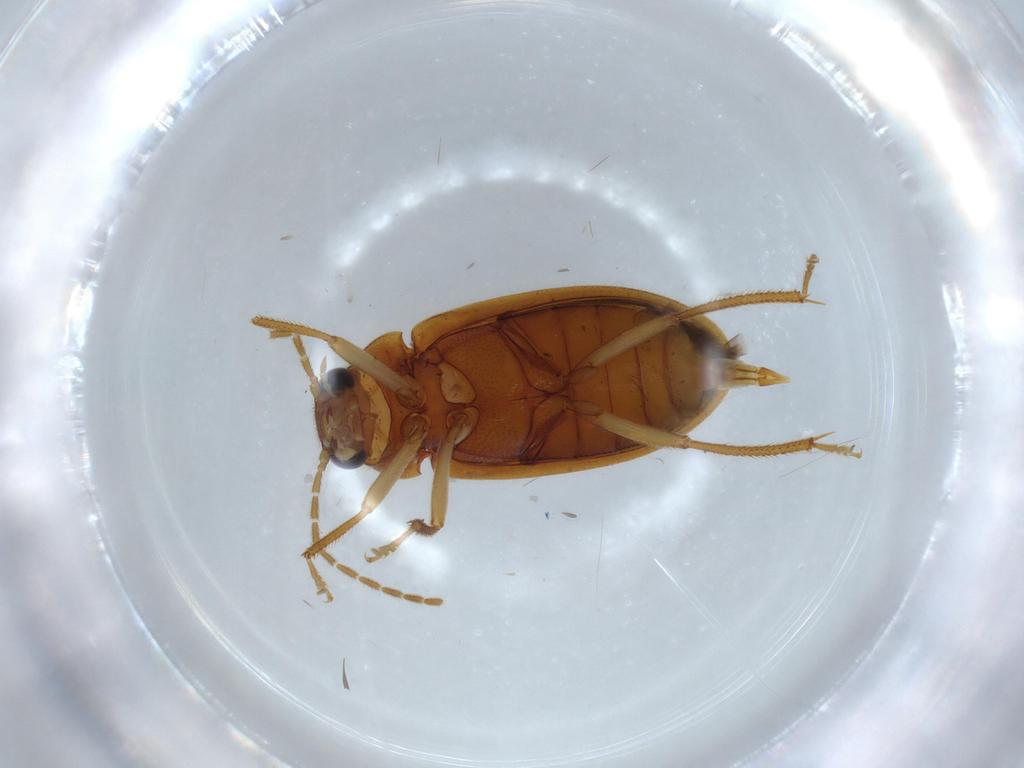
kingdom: Animalia
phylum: Arthropoda
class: Insecta
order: Coleoptera
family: Ptilodactylidae
